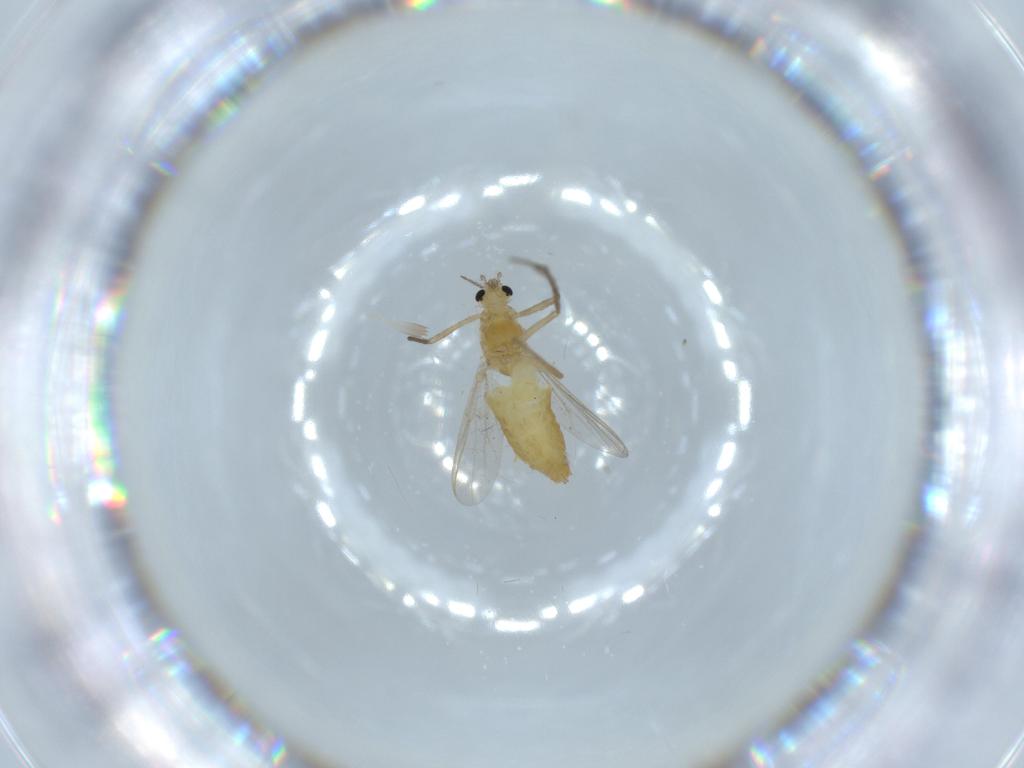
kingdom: Animalia
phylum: Arthropoda
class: Insecta
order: Diptera
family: Chironomidae
